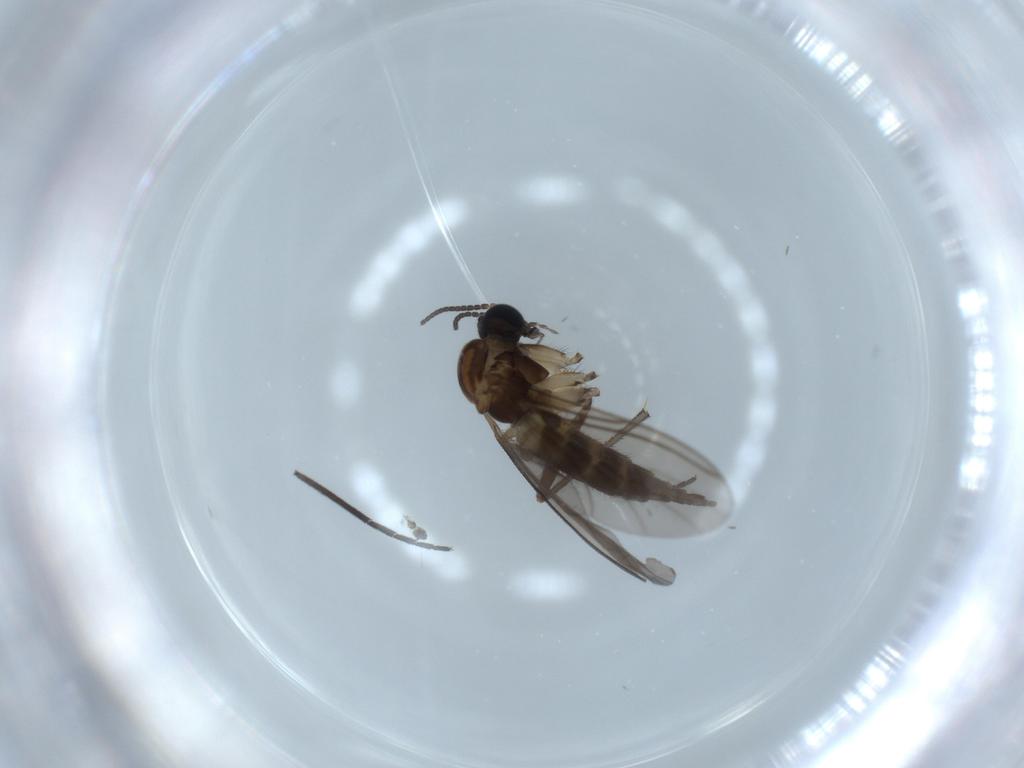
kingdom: Animalia
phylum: Arthropoda
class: Insecta
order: Diptera
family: Sciaridae
